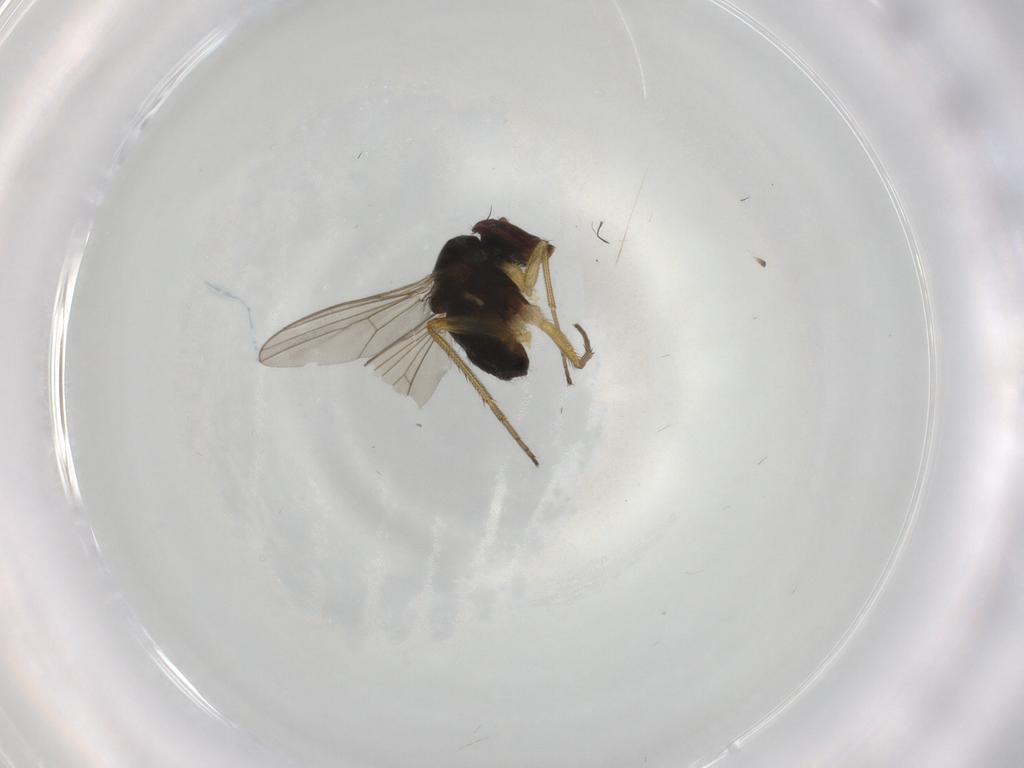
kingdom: Animalia
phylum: Arthropoda
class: Insecta
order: Diptera
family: Dolichopodidae
